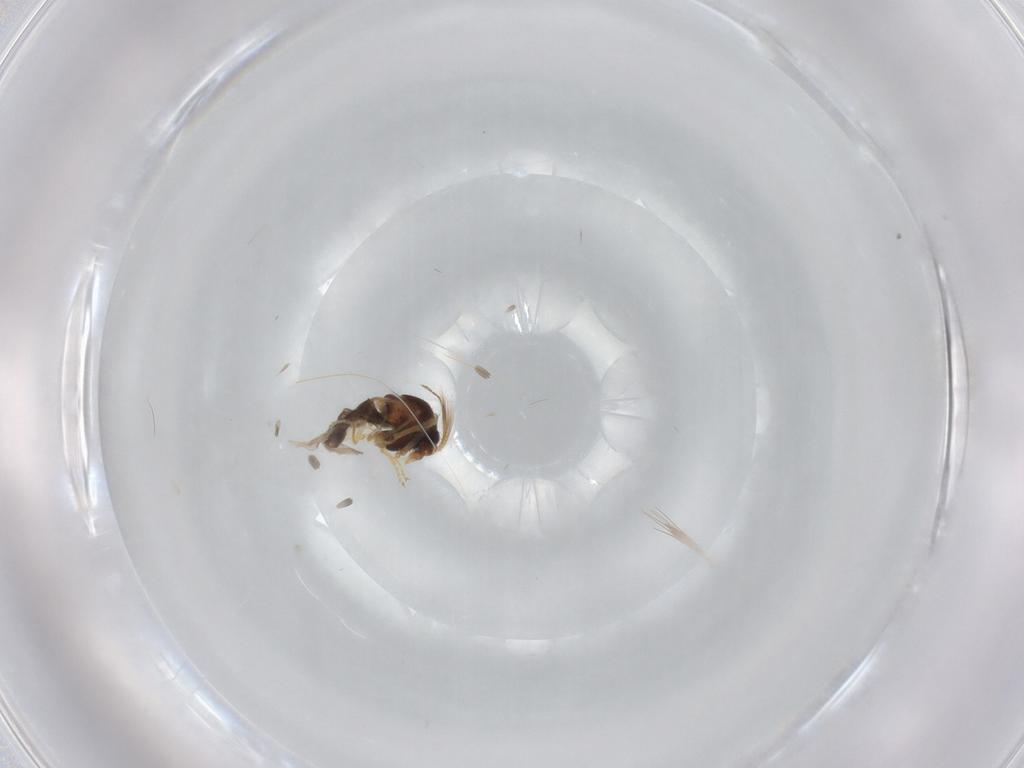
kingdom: Animalia
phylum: Arthropoda
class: Insecta
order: Diptera
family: Ceratopogonidae
